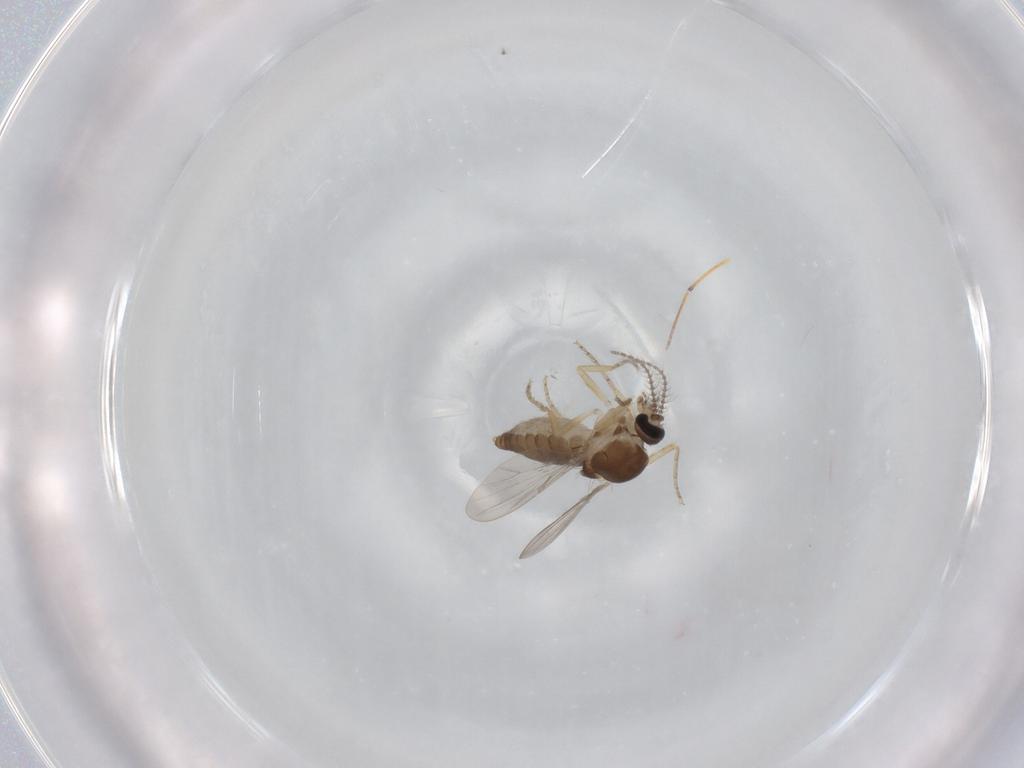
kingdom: Animalia
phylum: Arthropoda
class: Insecta
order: Diptera
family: Ceratopogonidae
